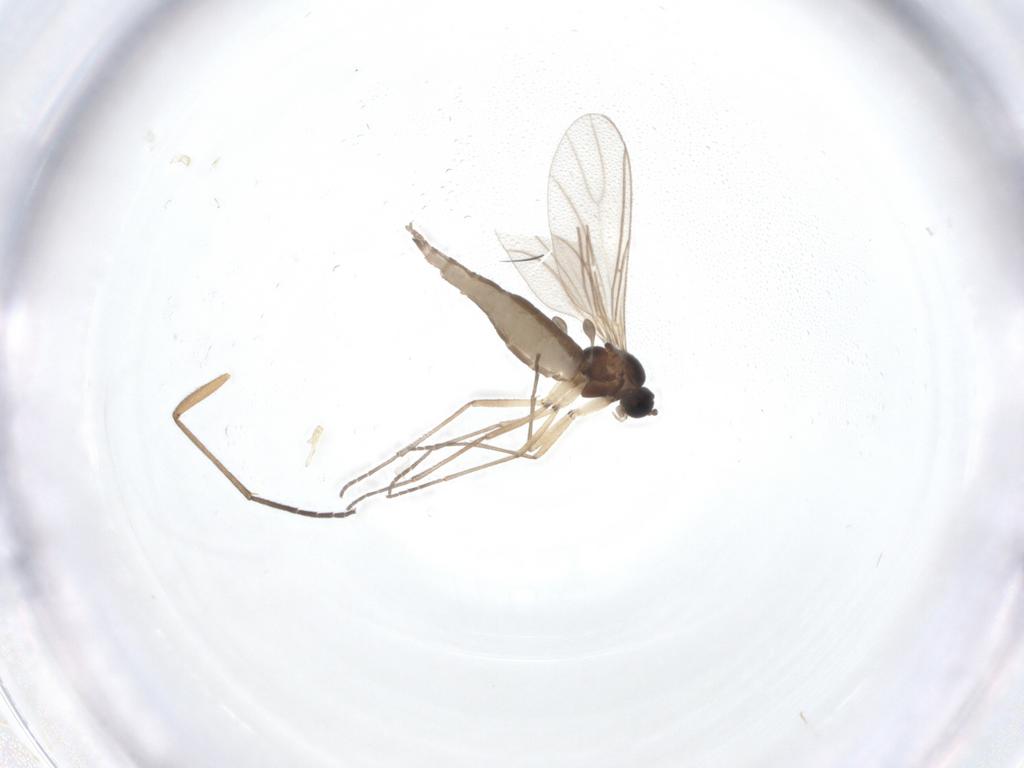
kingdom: Animalia
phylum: Arthropoda
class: Insecta
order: Diptera
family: Sciaridae
